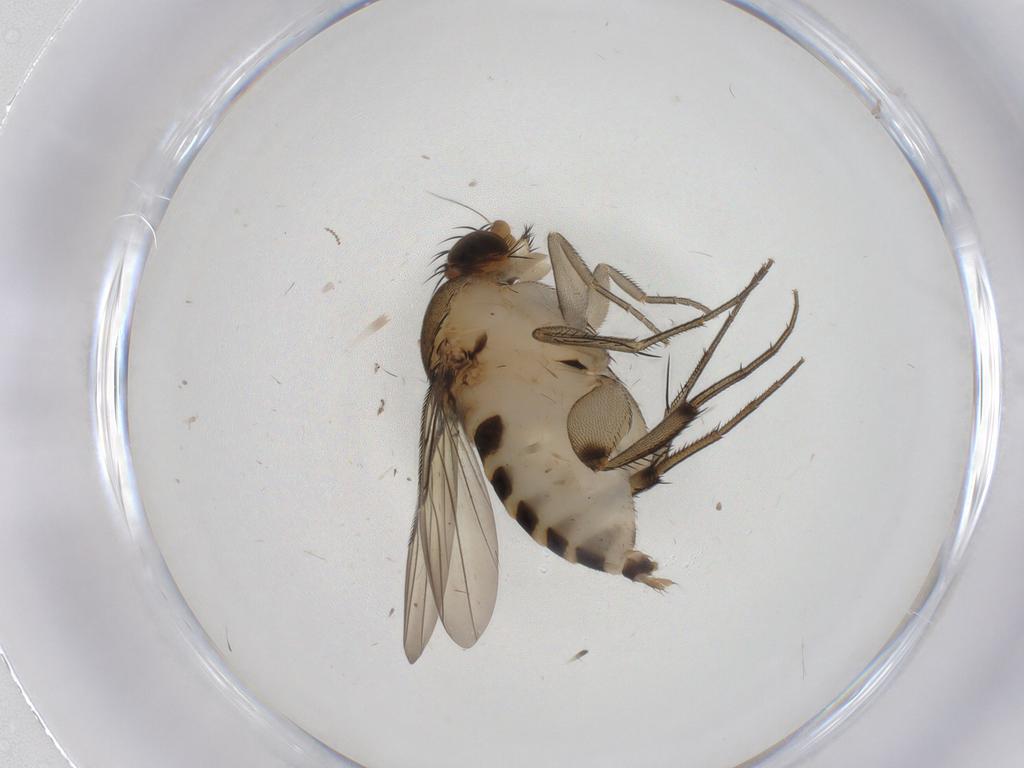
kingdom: Animalia
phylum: Arthropoda
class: Insecta
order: Diptera
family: Phoridae
